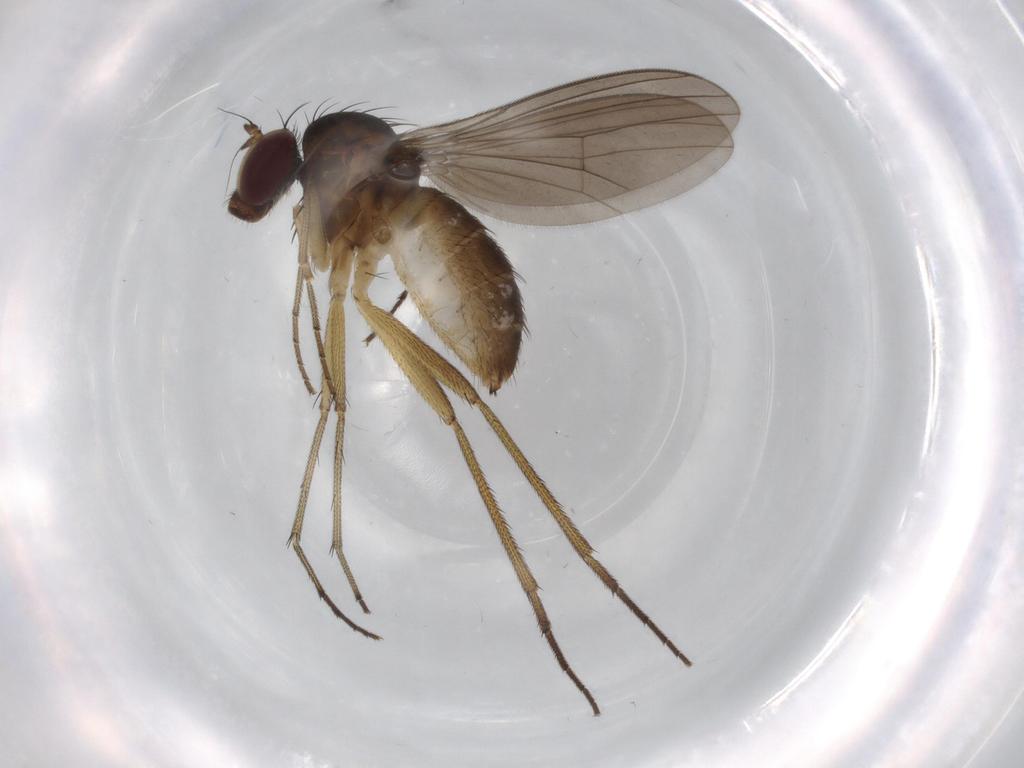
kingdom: Animalia
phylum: Arthropoda
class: Insecta
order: Diptera
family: Dolichopodidae
